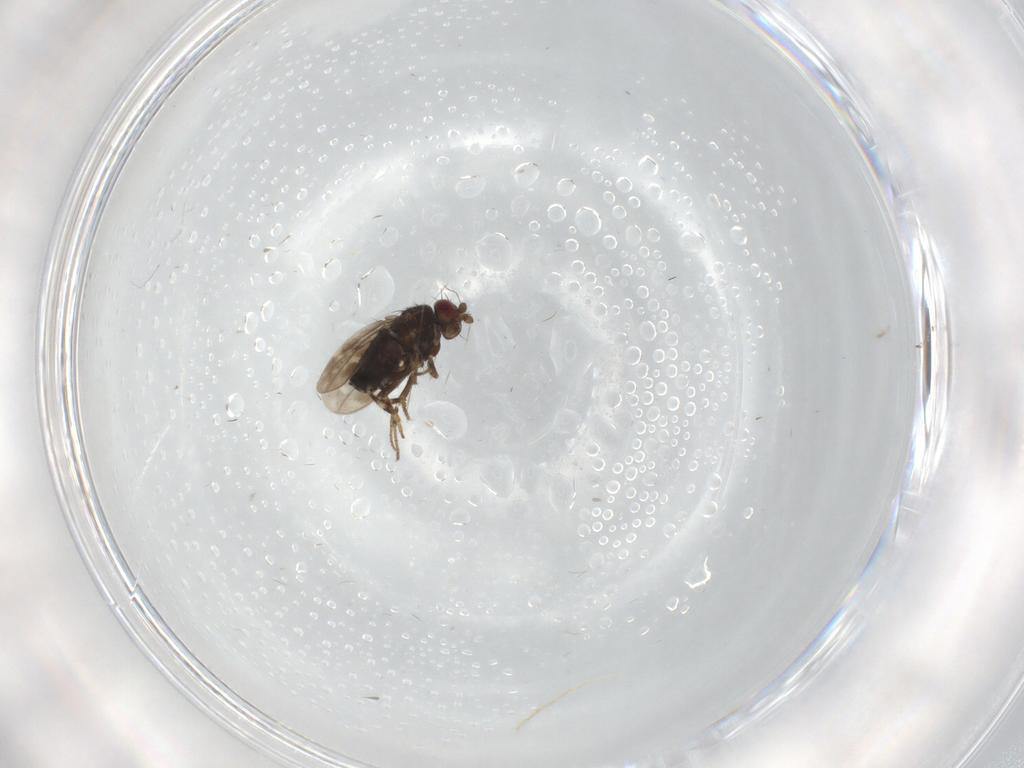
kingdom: Animalia
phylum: Arthropoda
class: Insecta
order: Diptera
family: Sphaeroceridae
